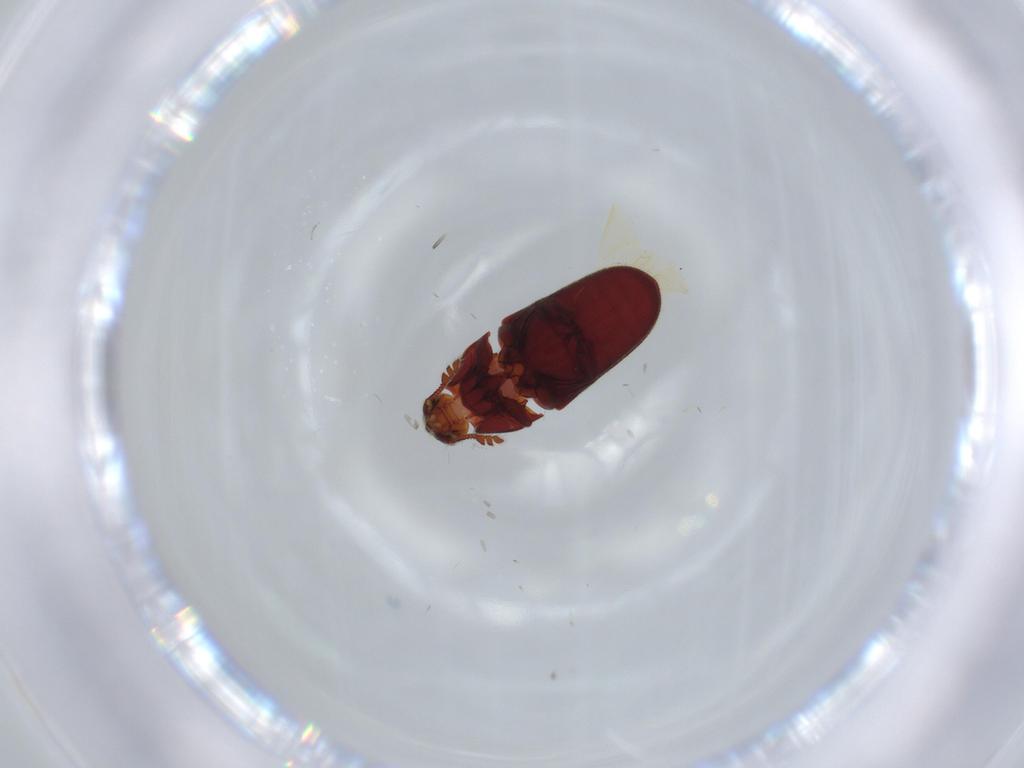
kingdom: Animalia
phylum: Arthropoda
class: Insecta
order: Coleoptera
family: Throscidae
